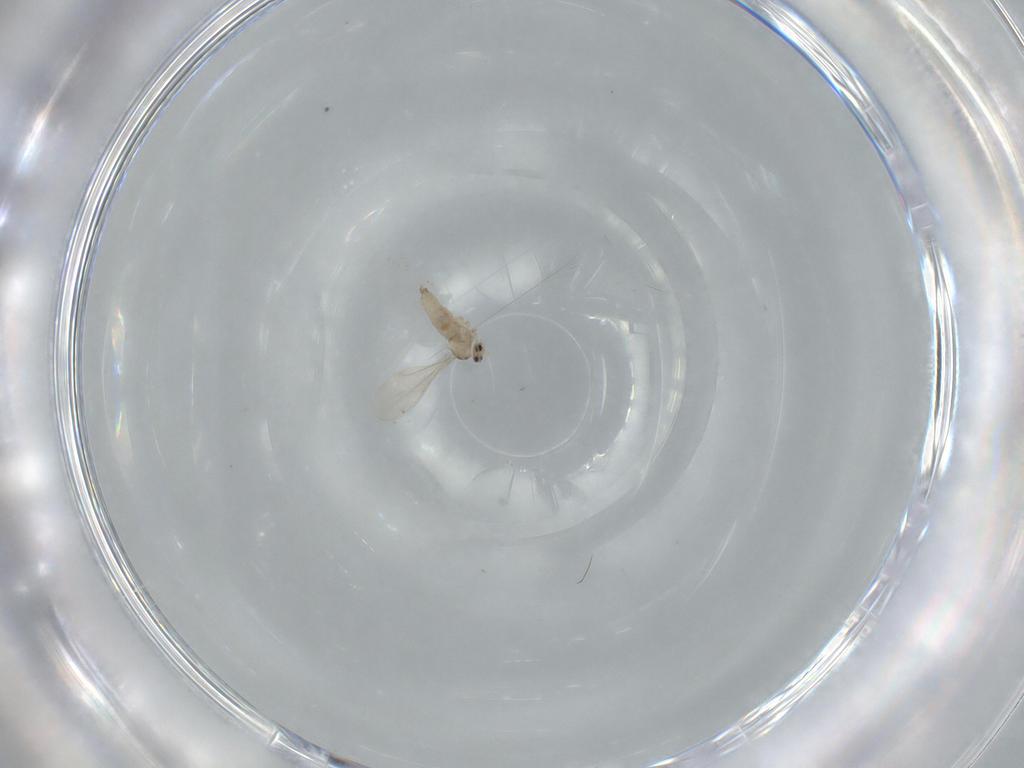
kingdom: Animalia
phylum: Arthropoda
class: Insecta
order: Diptera
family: Cecidomyiidae
